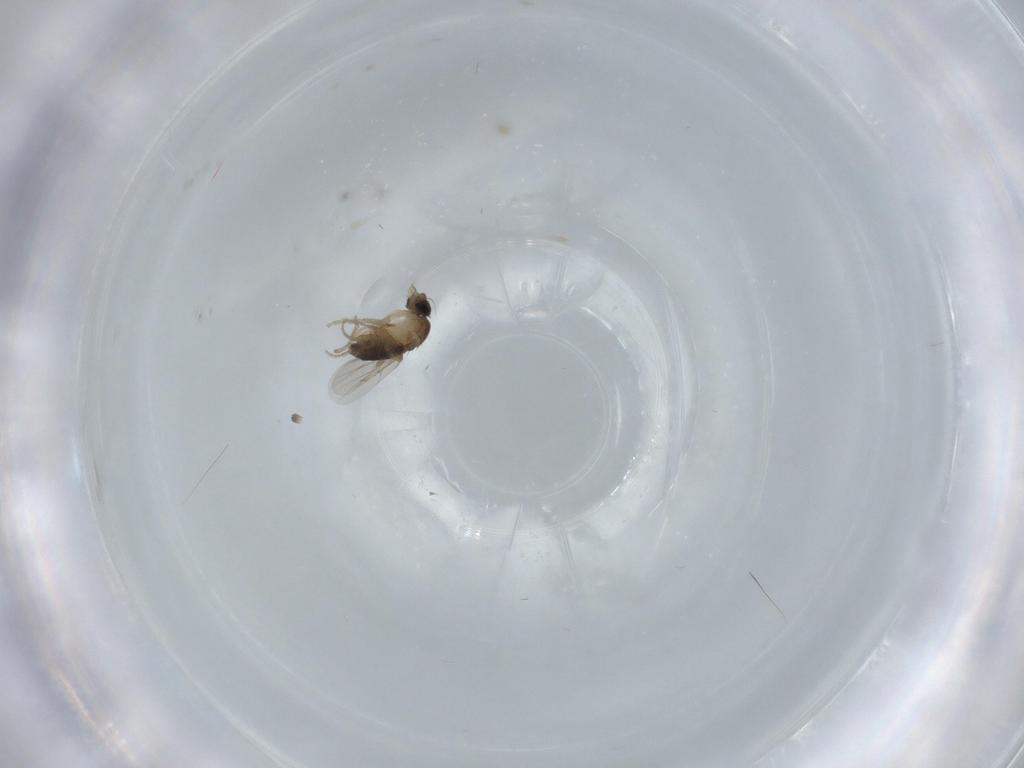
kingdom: Animalia
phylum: Arthropoda
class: Insecta
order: Diptera
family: Phoridae
